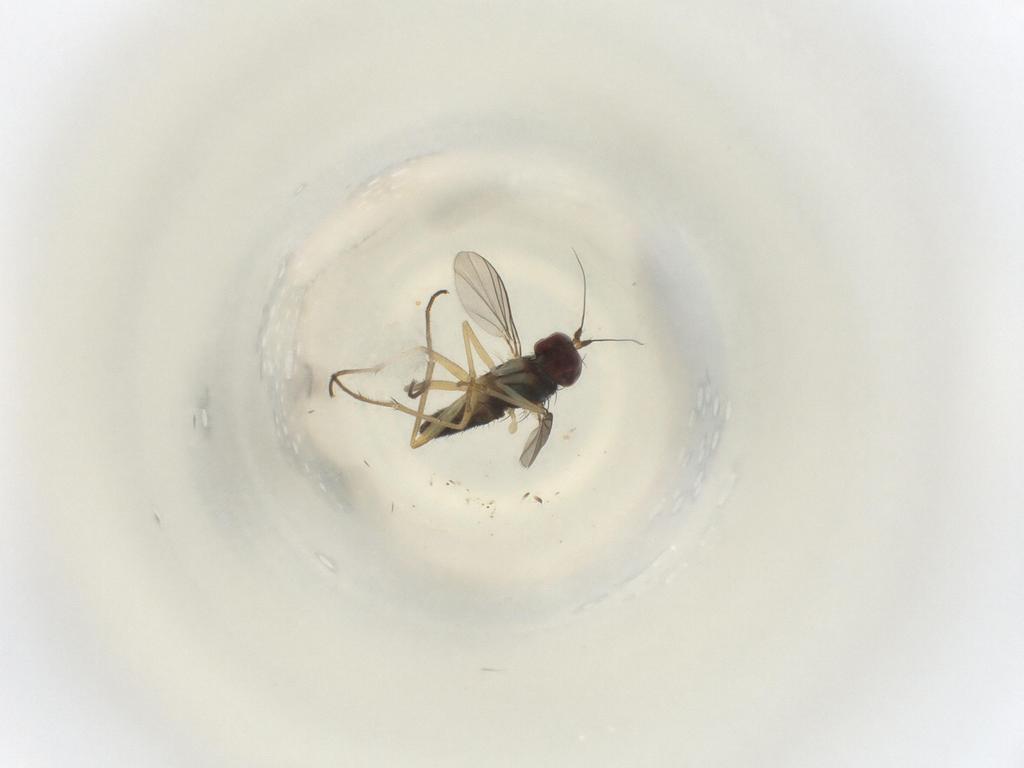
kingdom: Animalia
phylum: Arthropoda
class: Insecta
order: Diptera
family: Dolichopodidae
